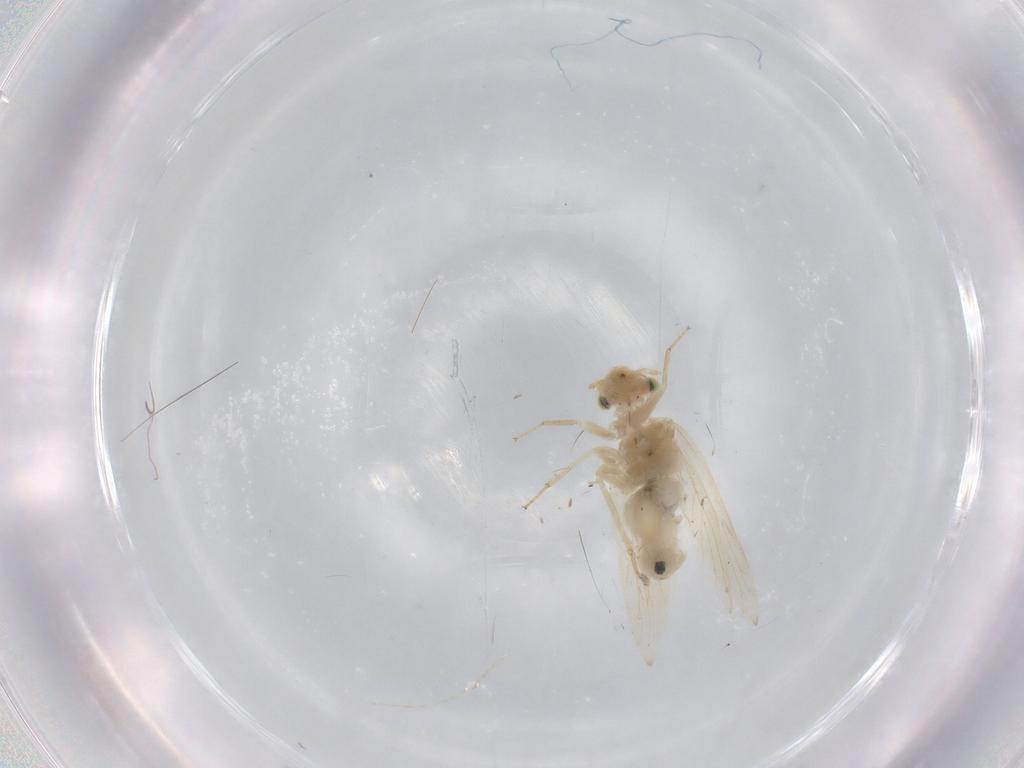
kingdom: Animalia
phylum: Arthropoda
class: Insecta
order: Psocodea
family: Lepidopsocidae
